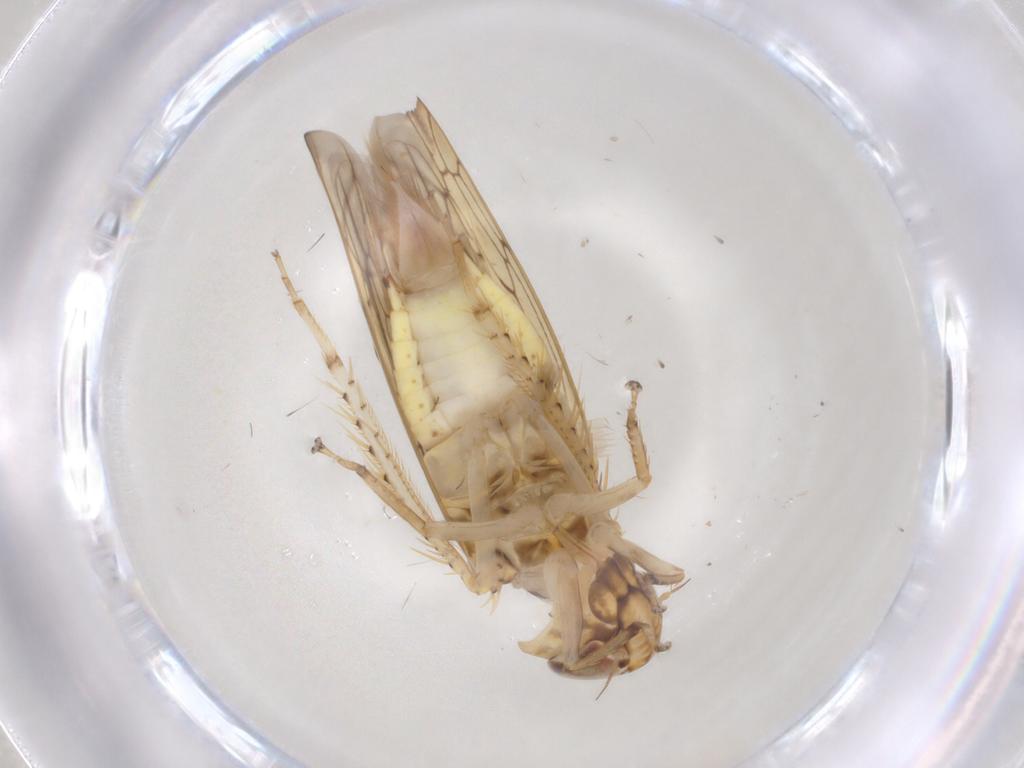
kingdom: Animalia
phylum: Arthropoda
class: Insecta
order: Hemiptera
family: Cicadellidae
